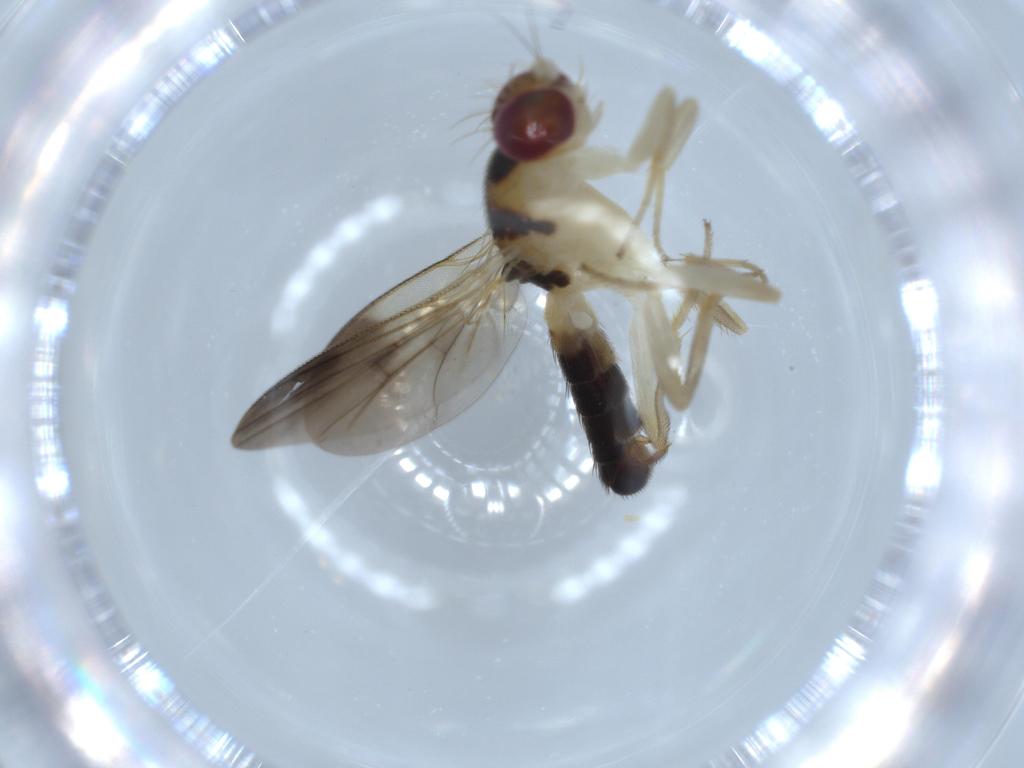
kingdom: Animalia
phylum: Arthropoda
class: Insecta
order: Diptera
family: Clusiidae
